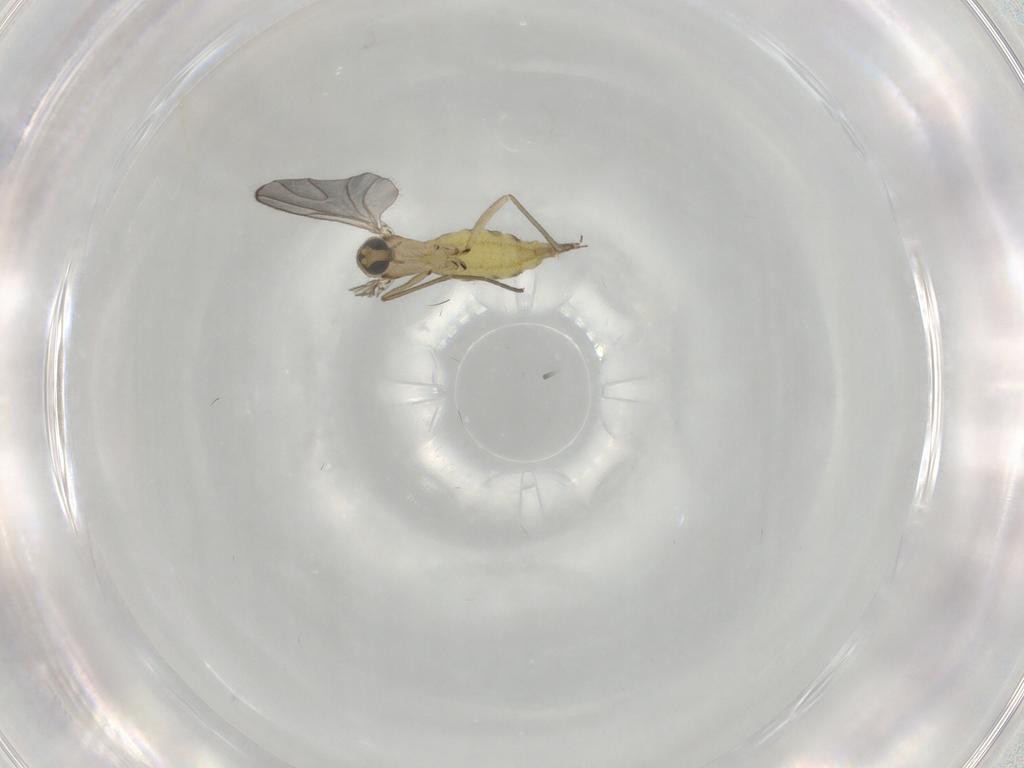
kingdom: Animalia
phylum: Arthropoda
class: Insecta
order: Diptera
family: Sciaridae
